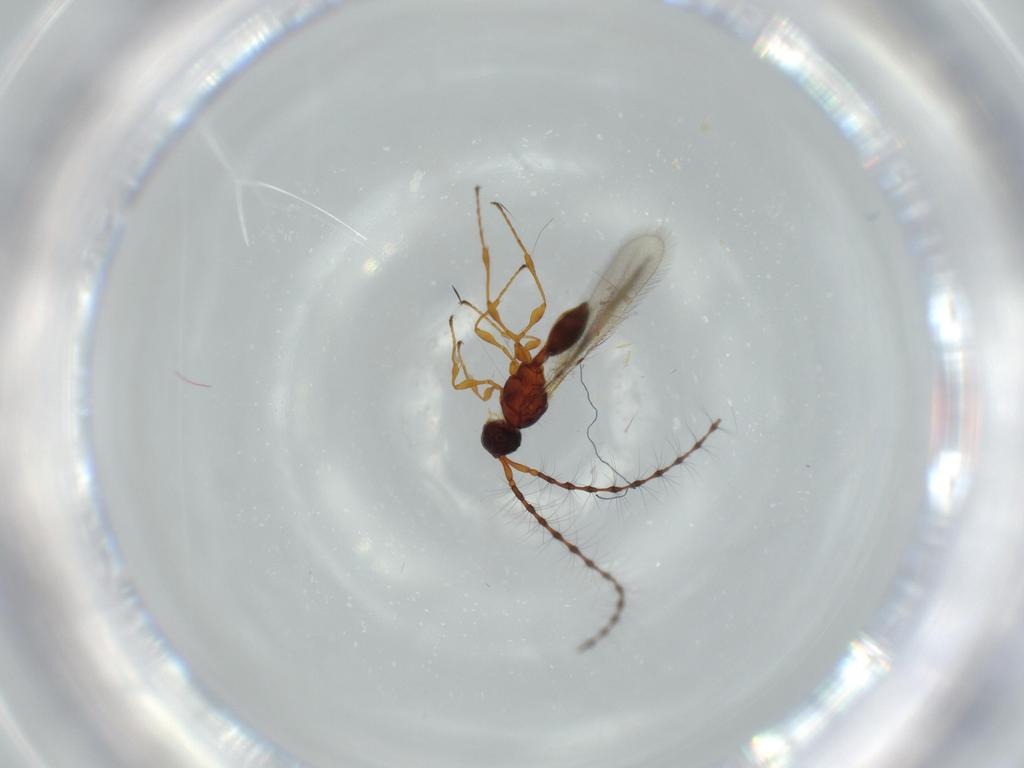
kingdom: Animalia
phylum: Arthropoda
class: Insecta
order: Hymenoptera
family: Diapriidae
